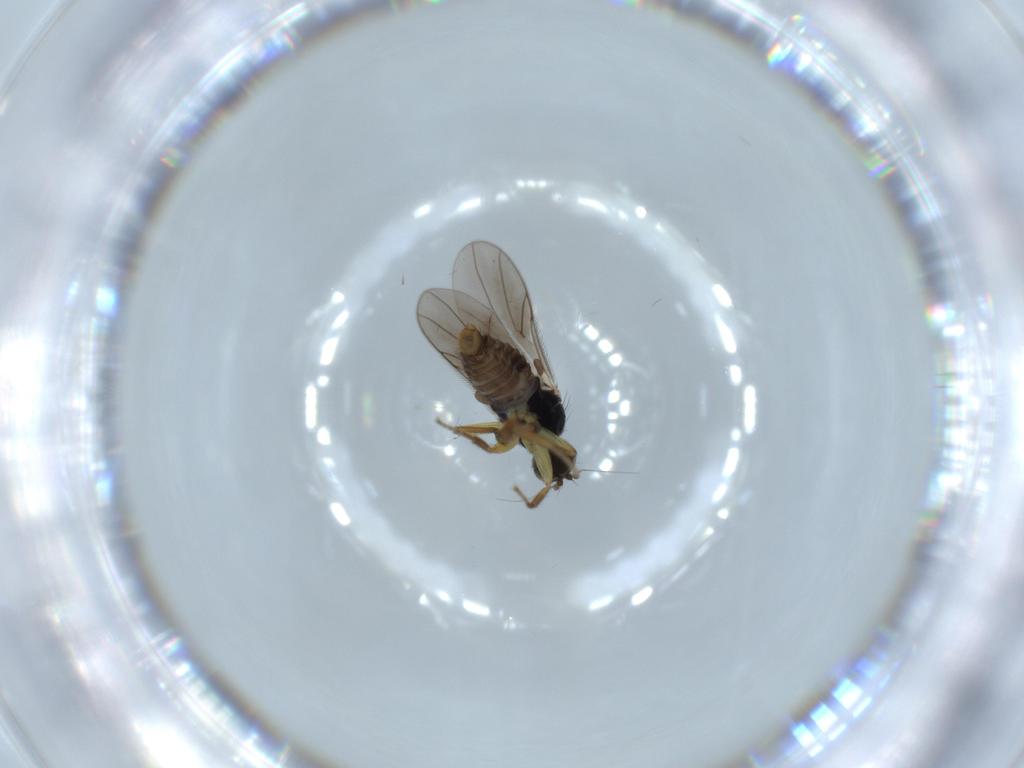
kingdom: Animalia
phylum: Arthropoda
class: Insecta
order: Diptera
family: Hybotidae
